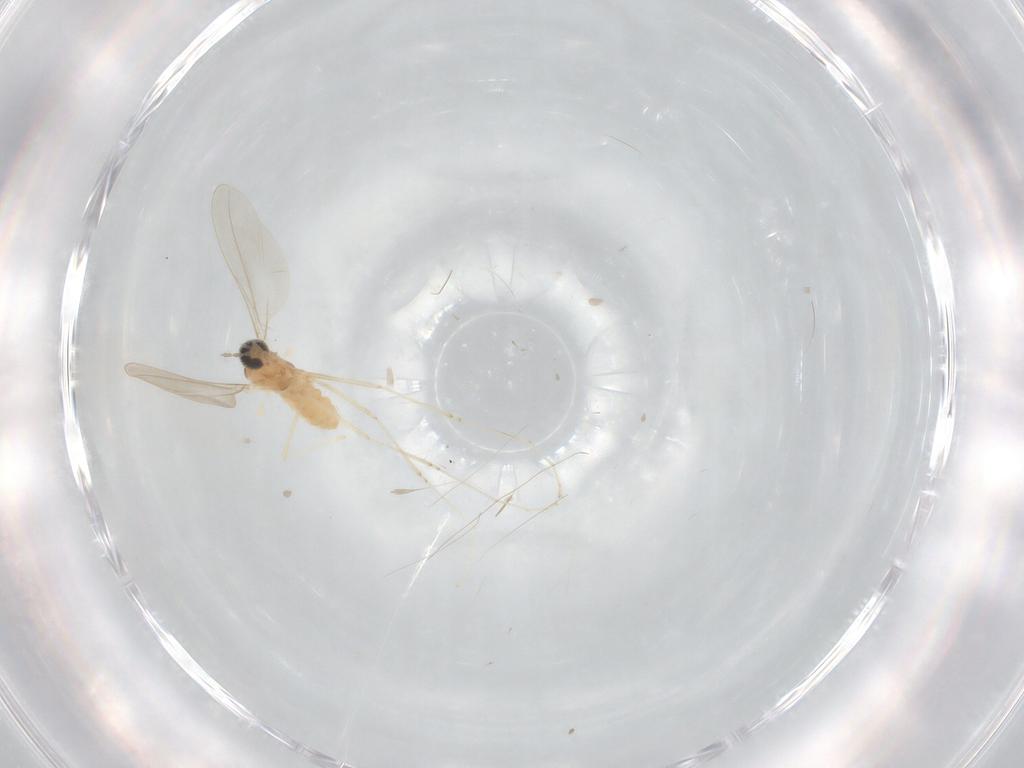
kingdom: Animalia
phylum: Arthropoda
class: Insecta
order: Diptera
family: Cecidomyiidae
